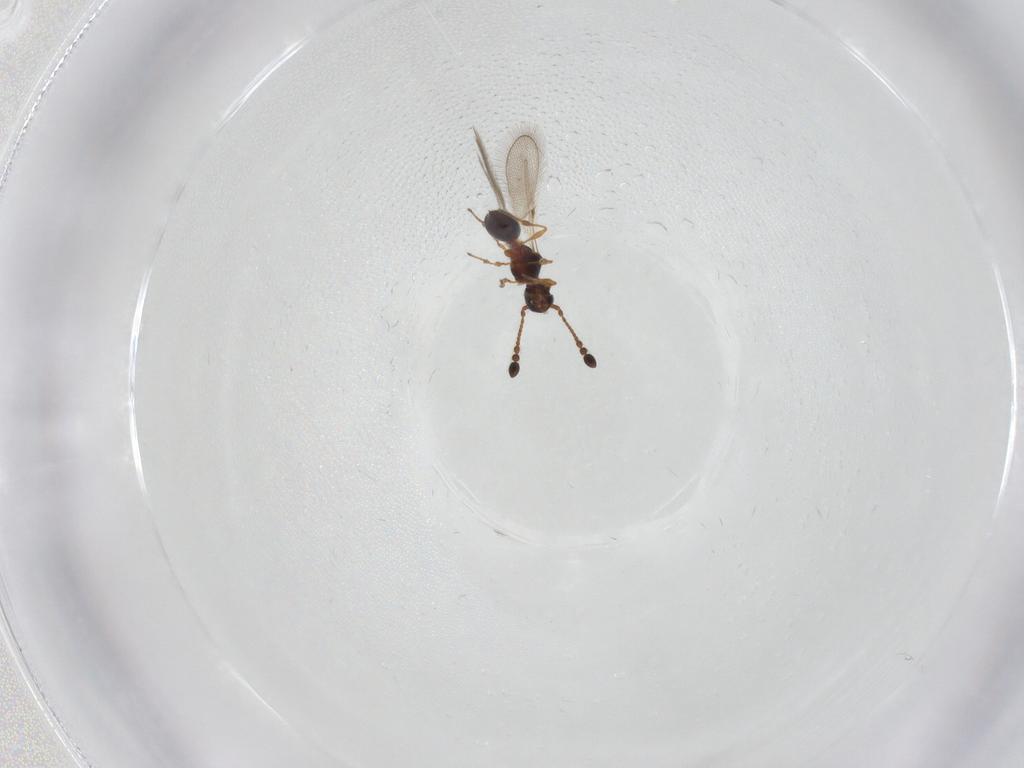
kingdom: Animalia
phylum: Arthropoda
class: Insecta
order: Hymenoptera
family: Diapriidae
